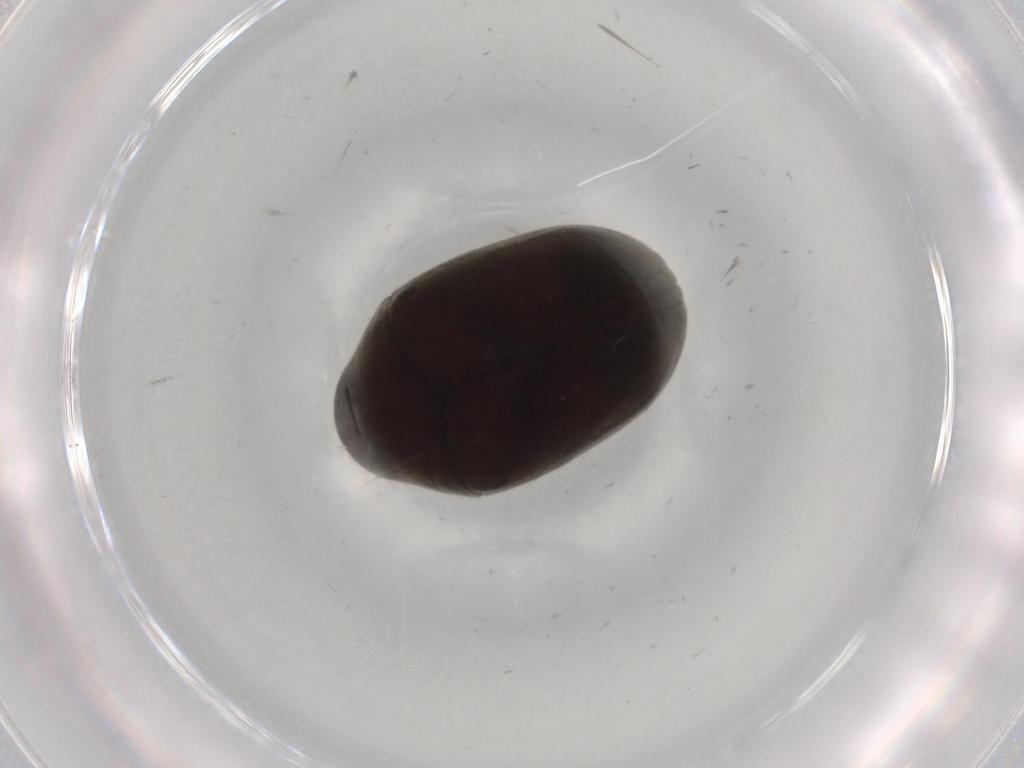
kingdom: Animalia
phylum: Arthropoda
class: Insecta
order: Coleoptera
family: Ptinidae
